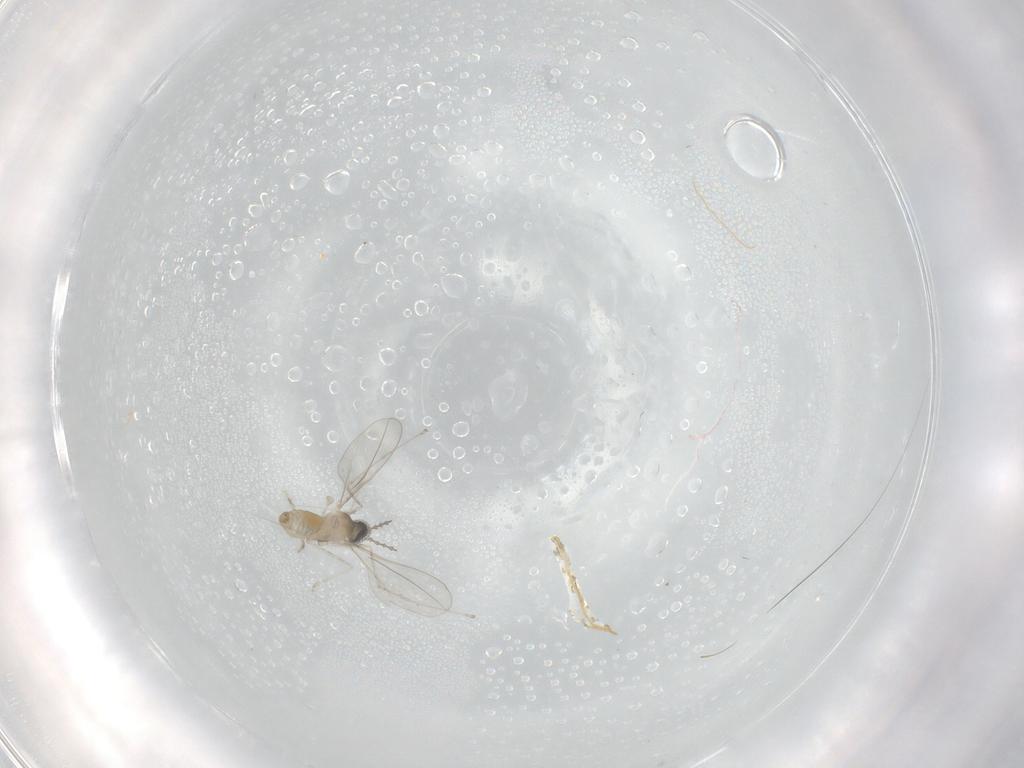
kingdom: Animalia
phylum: Arthropoda
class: Insecta
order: Diptera
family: Cecidomyiidae
